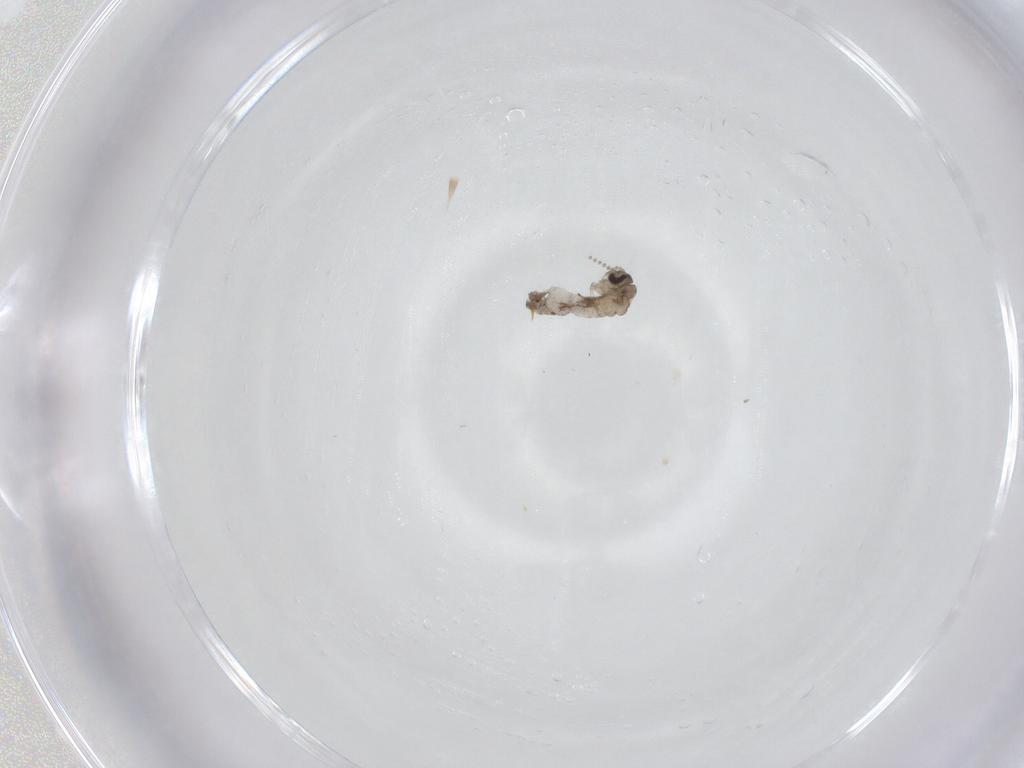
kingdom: Animalia
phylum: Arthropoda
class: Insecta
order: Diptera
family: Psychodidae
